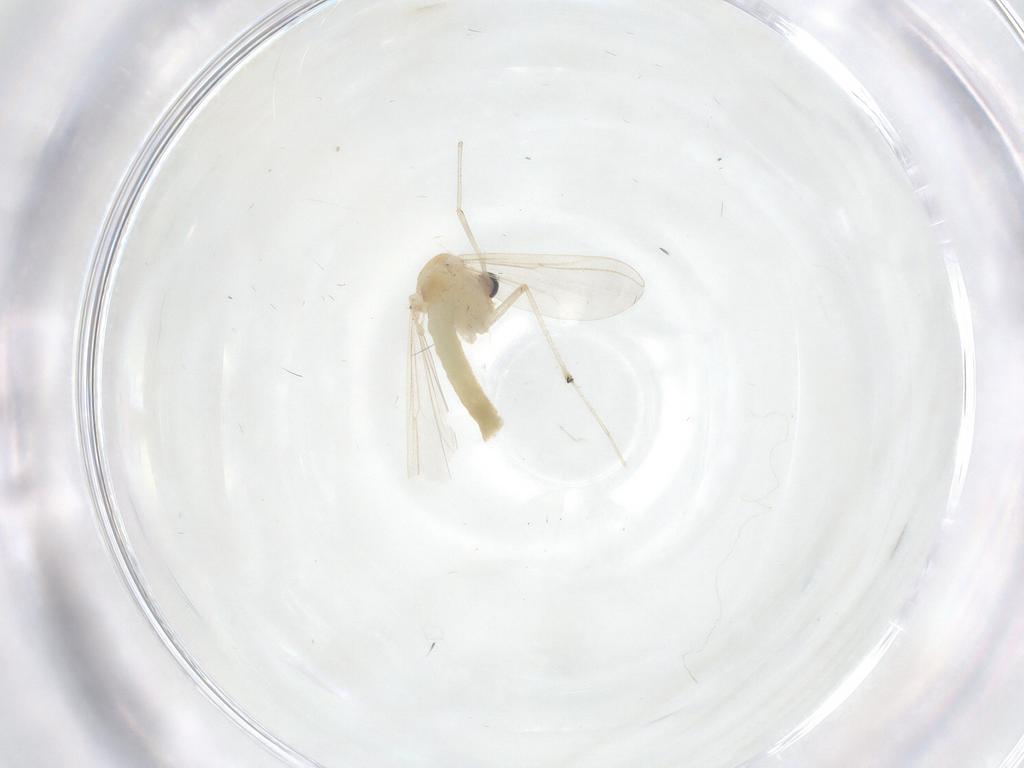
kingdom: Animalia
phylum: Arthropoda
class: Insecta
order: Diptera
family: Chironomidae
